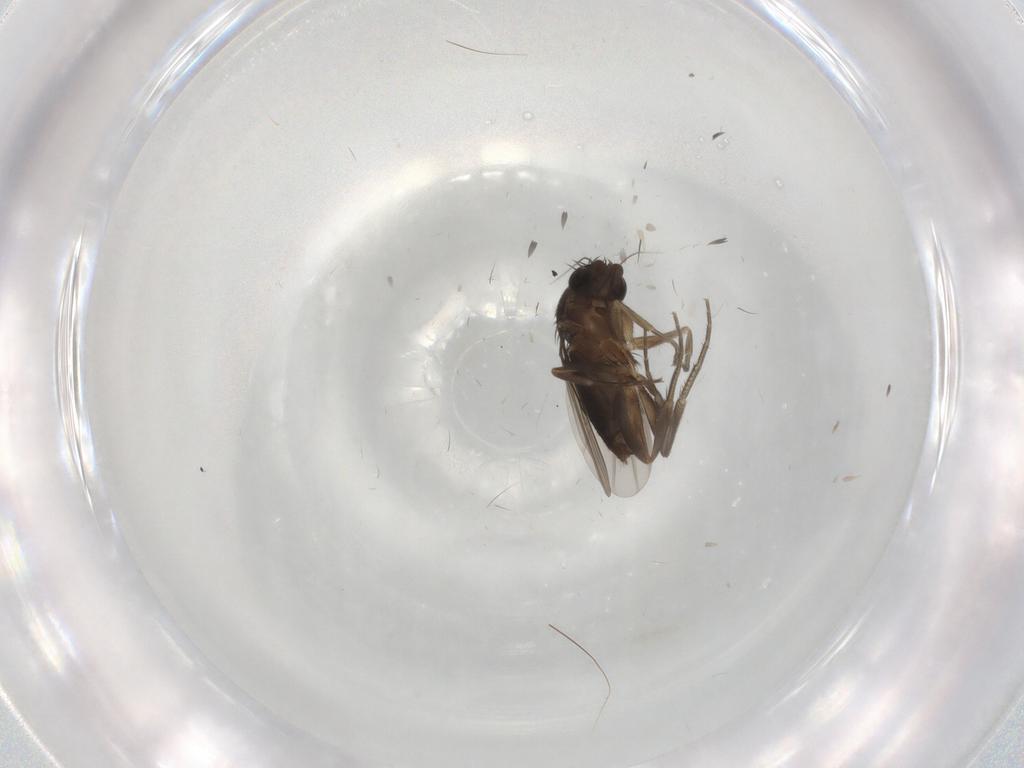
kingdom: Animalia
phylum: Arthropoda
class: Insecta
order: Diptera
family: Phoridae
